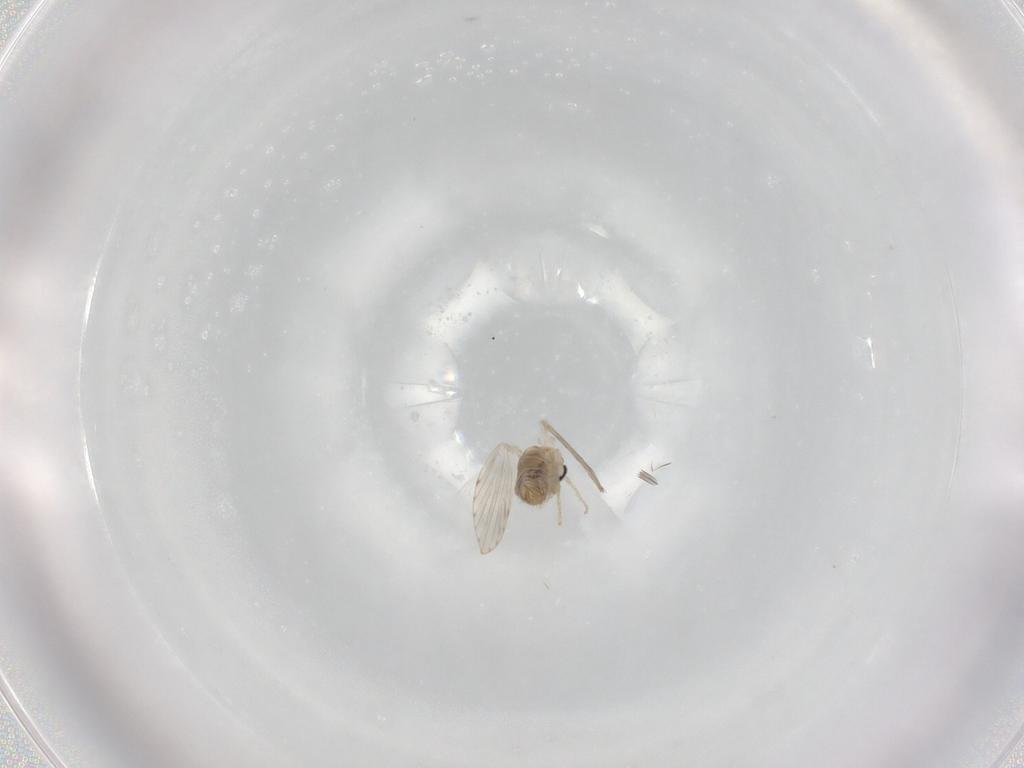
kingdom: Animalia
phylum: Arthropoda
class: Insecta
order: Diptera
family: Psychodidae
